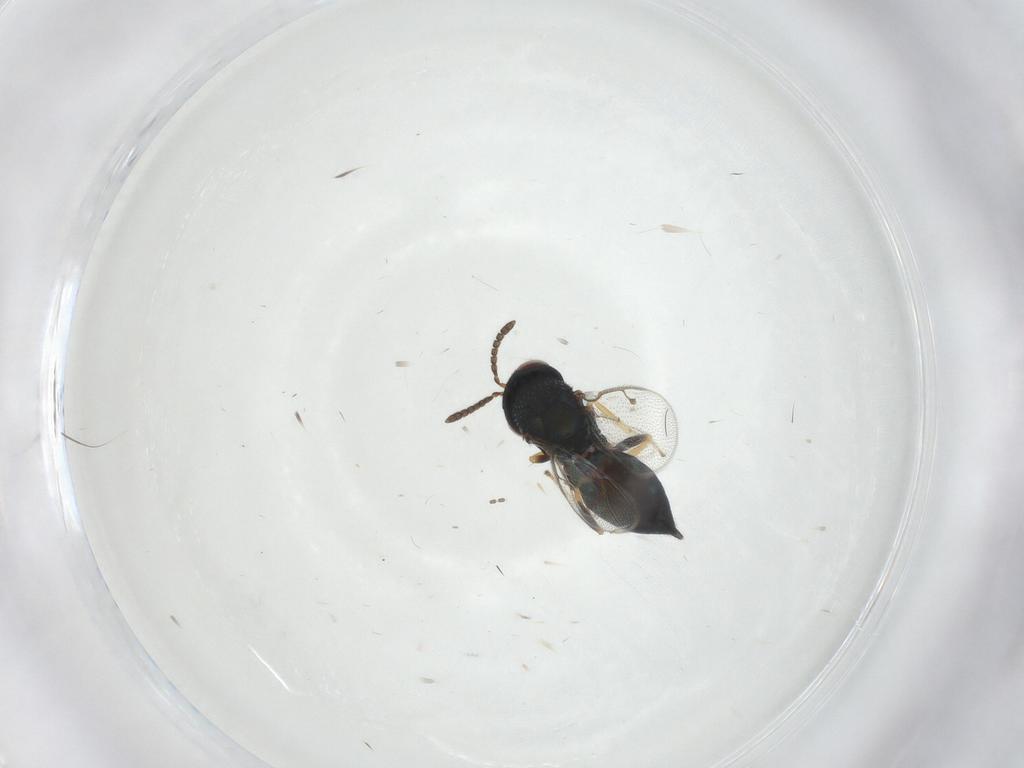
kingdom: Animalia
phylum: Arthropoda
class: Insecta
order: Hymenoptera
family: Pteromalidae
